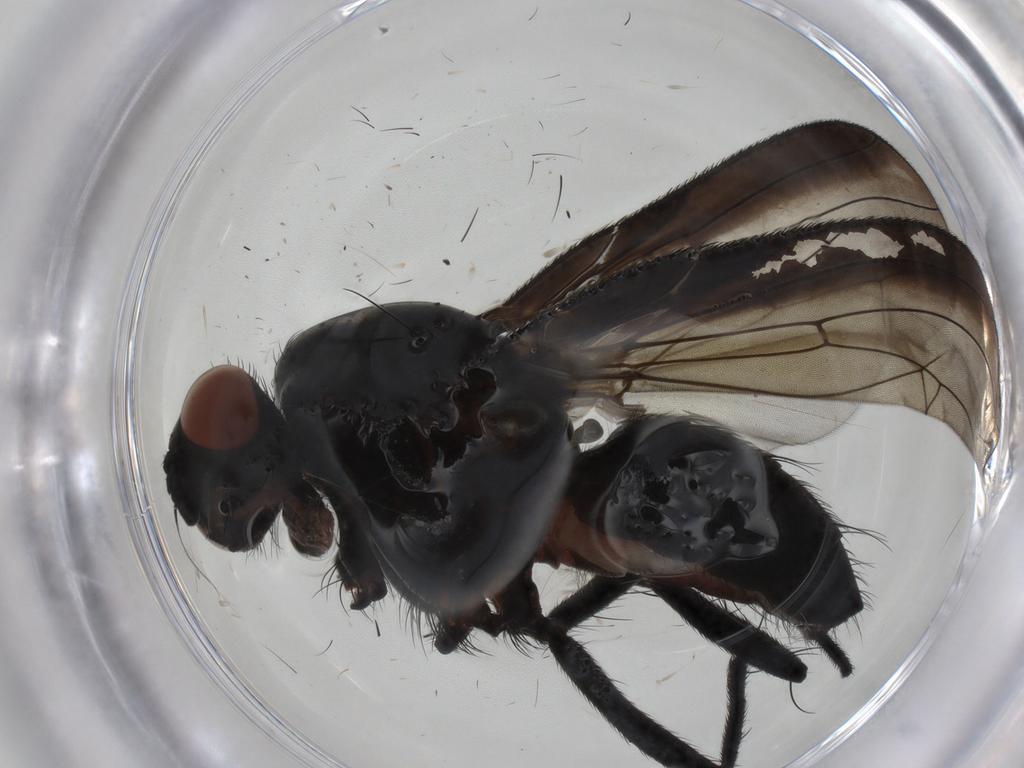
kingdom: Animalia
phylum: Arthropoda
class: Insecta
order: Diptera
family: Anthomyiidae
